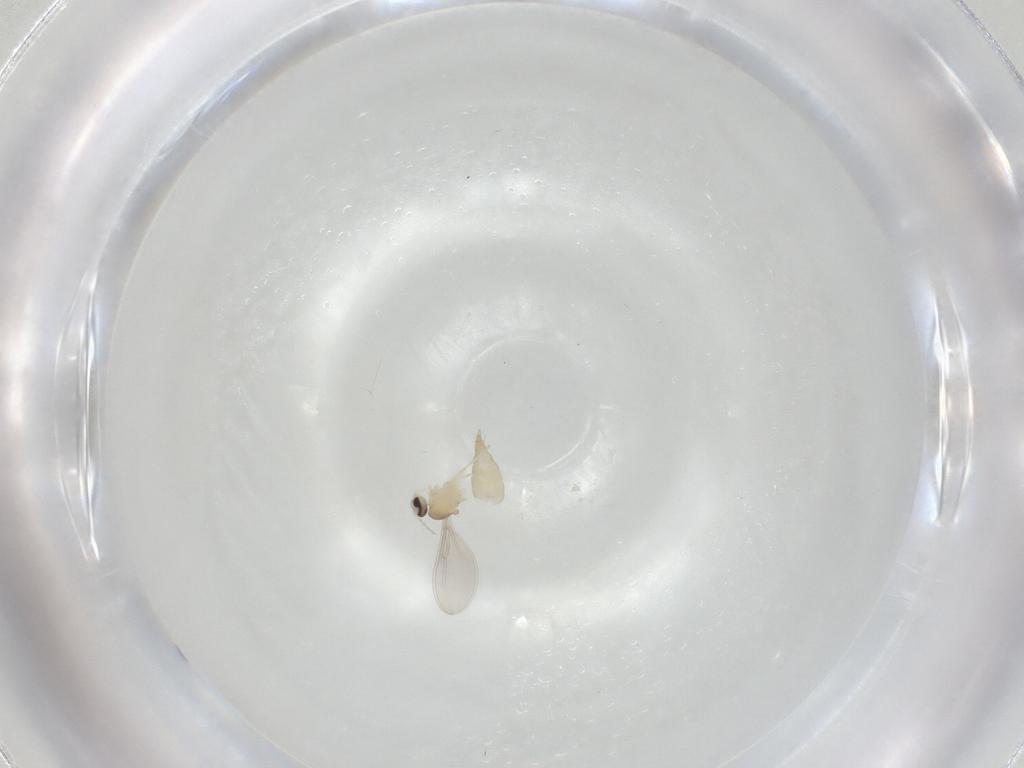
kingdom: Animalia
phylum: Arthropoda
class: Insecta
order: Diptera
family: Cecidomyiidae
